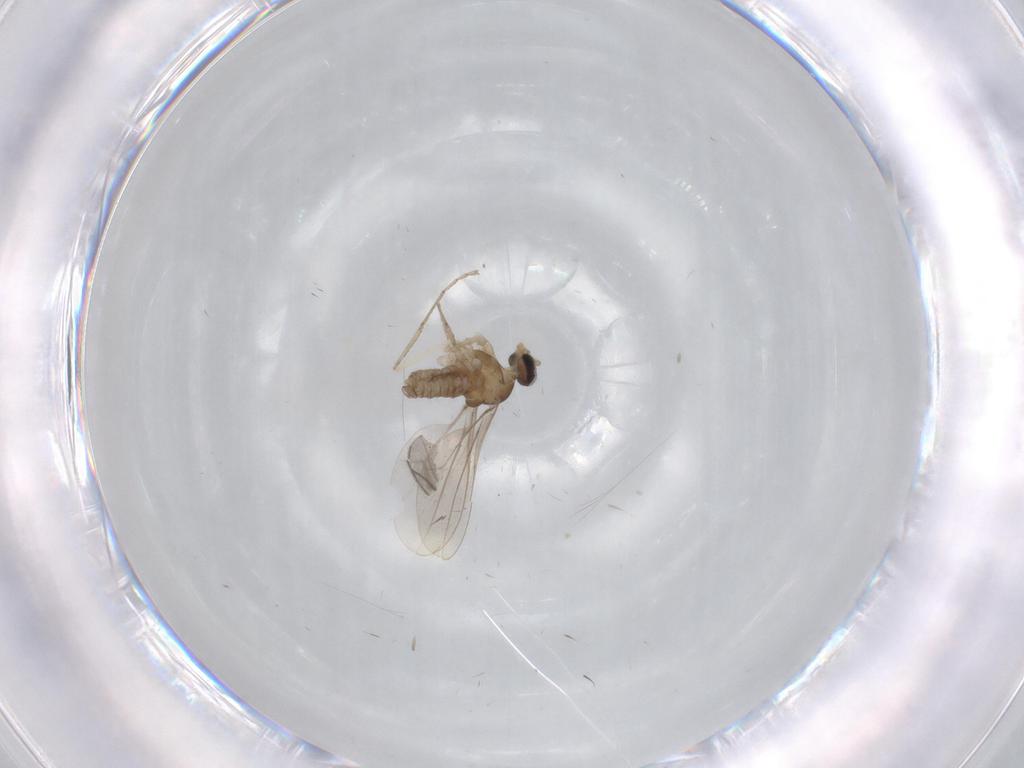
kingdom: Animalia
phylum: Arthropoda
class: Insecta
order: Diptera
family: Cecidomyiidae
